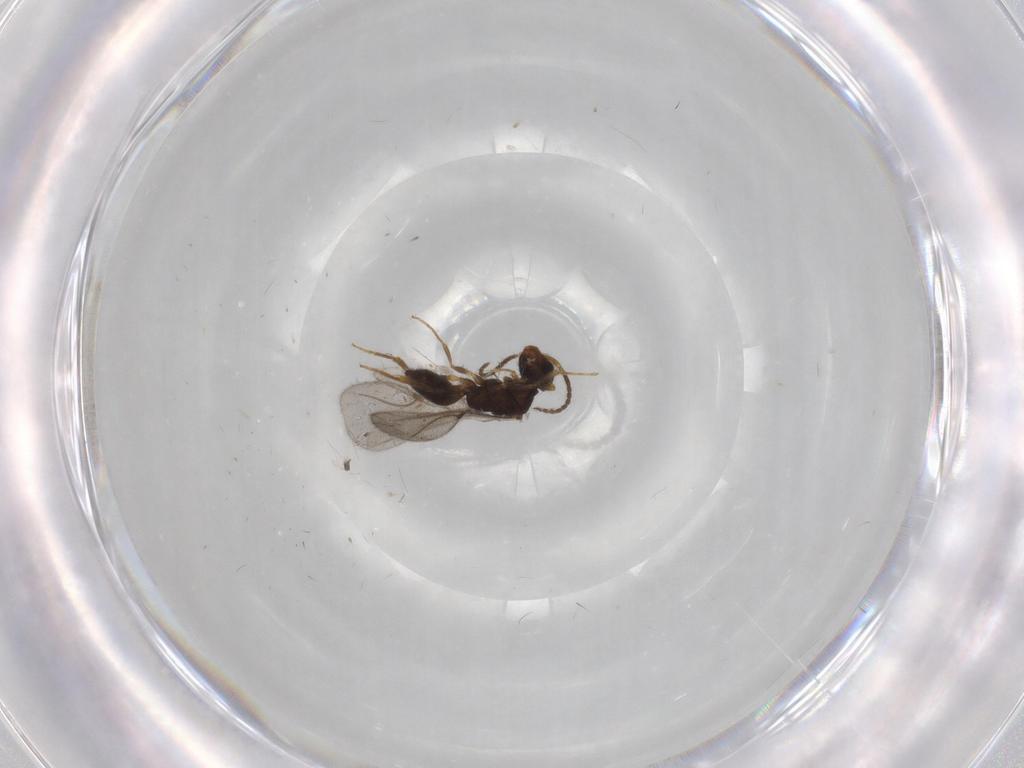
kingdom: Animalia
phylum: Arthropoda
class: Insecta
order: Hymenoptera
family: Bethylidae
